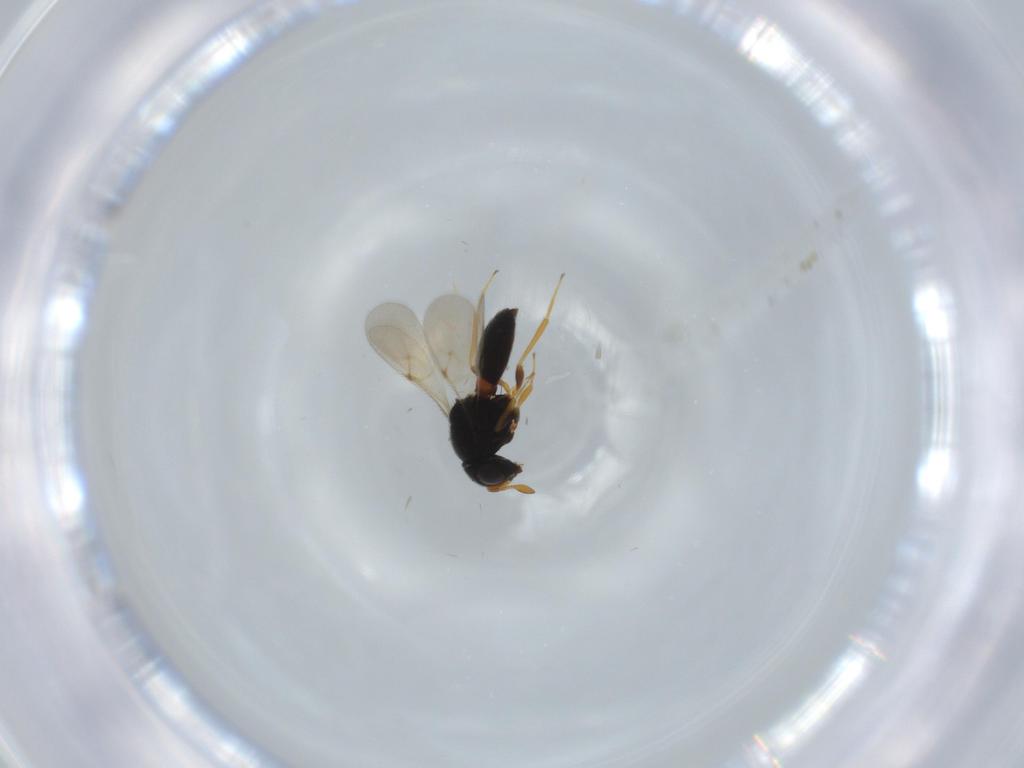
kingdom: Animalia
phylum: Arthropoda
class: Insecta
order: Hymenoptera
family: Scelionidae
